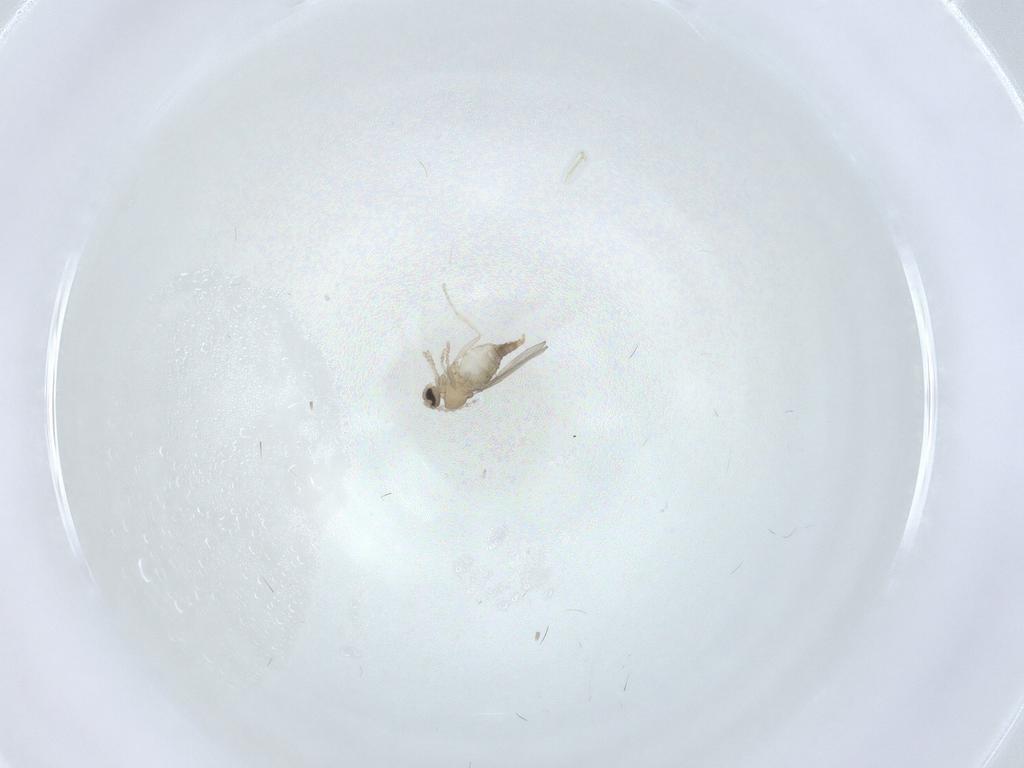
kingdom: Animalia
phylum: Arthropoda
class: Insecta
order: Diptera
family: Cecidomyiidae
